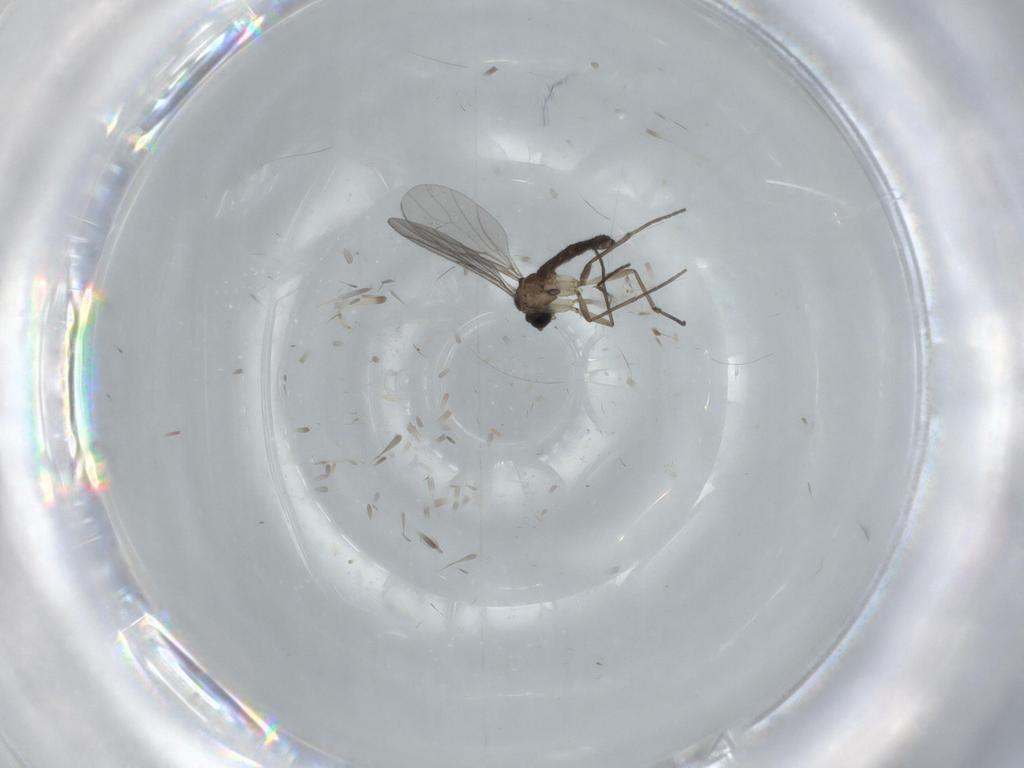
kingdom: Animalia
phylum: Arthropoda
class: Insecta
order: Diptera
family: Sciaridae
